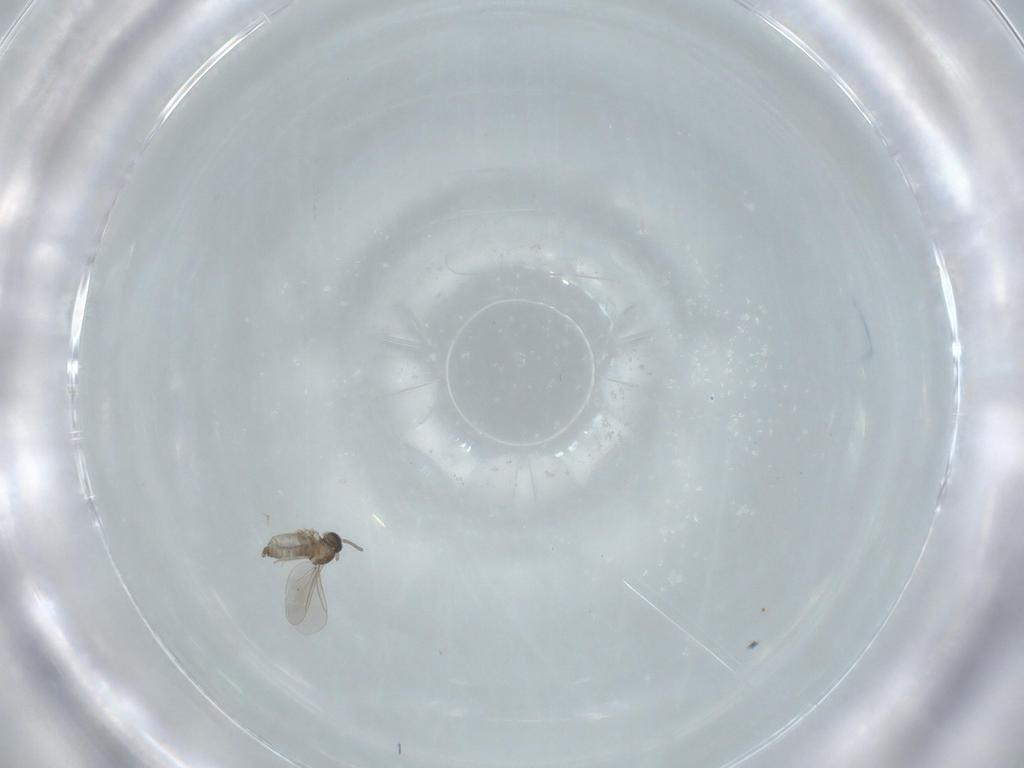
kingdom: Animalia
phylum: Arthropoda
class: Insecta
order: Diptera
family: Cecidomyiidae
